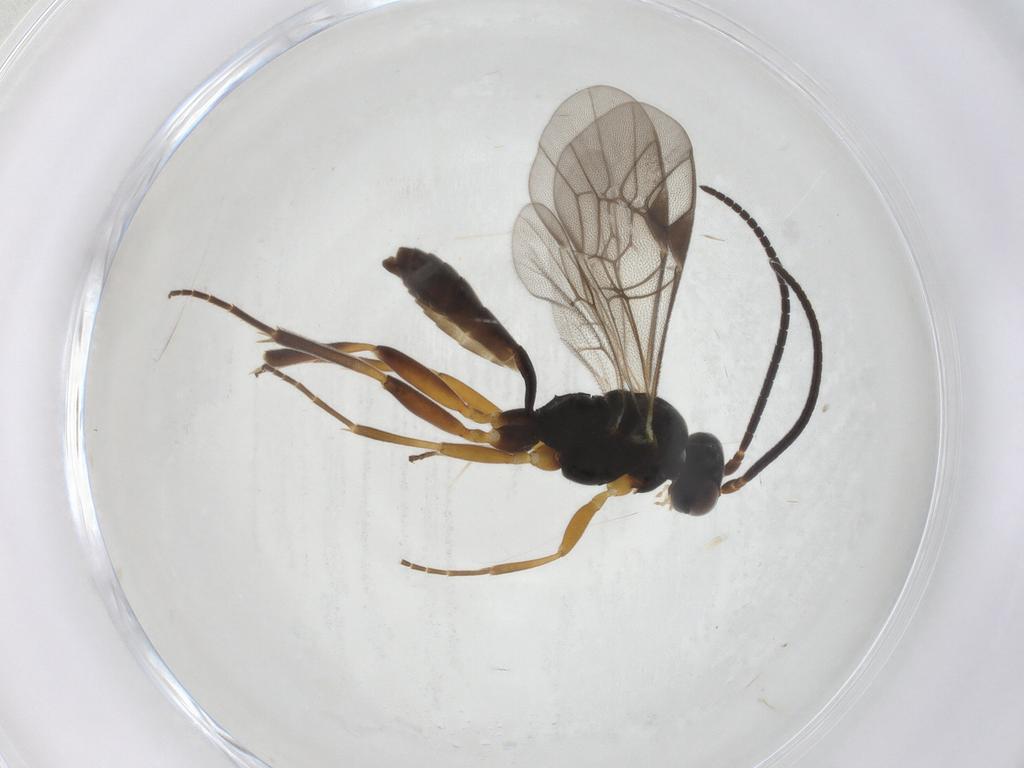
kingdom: Animalia
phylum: Arthropoda
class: Insecta
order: Hymenoptera
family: Ichneumonidae
